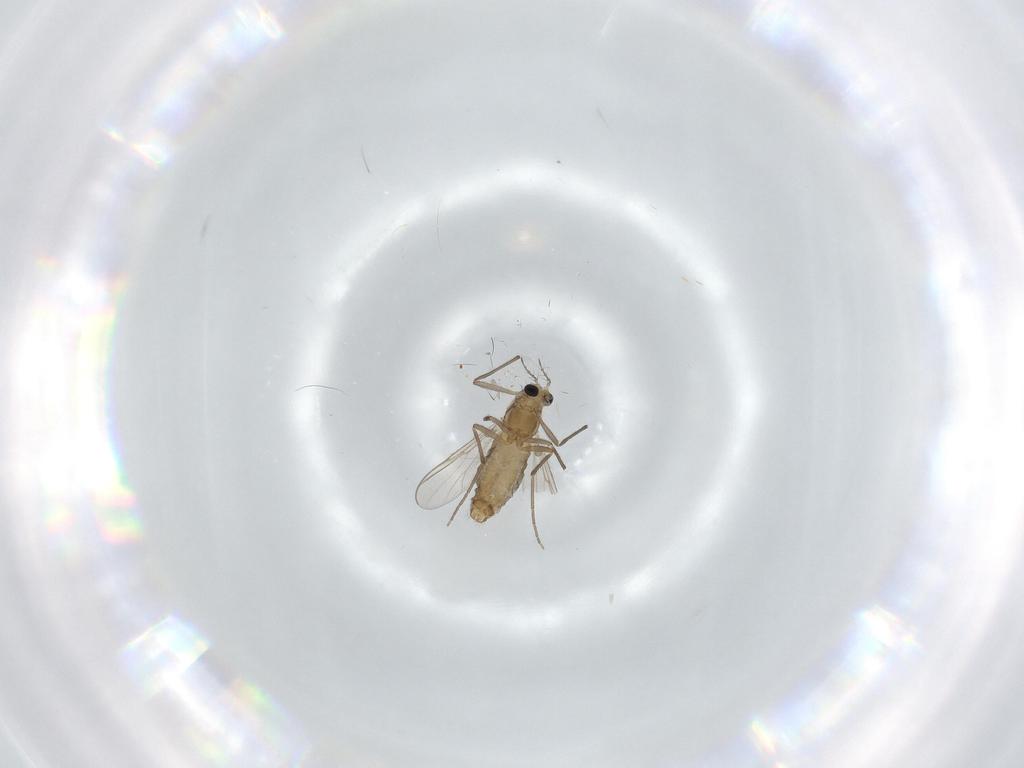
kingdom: Animalia
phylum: Arthropoda
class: Insecta
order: Diptera
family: Chironomidae
